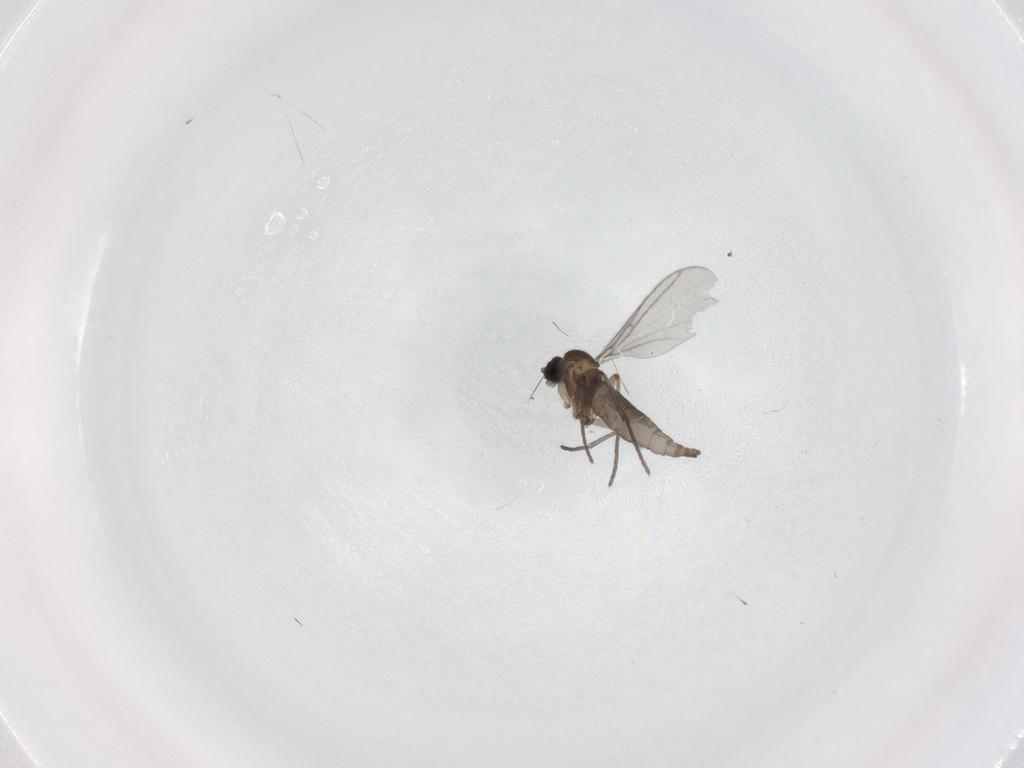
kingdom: Animalia
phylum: Arthropoda
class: Insecta
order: Diptera
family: Sciaridae
